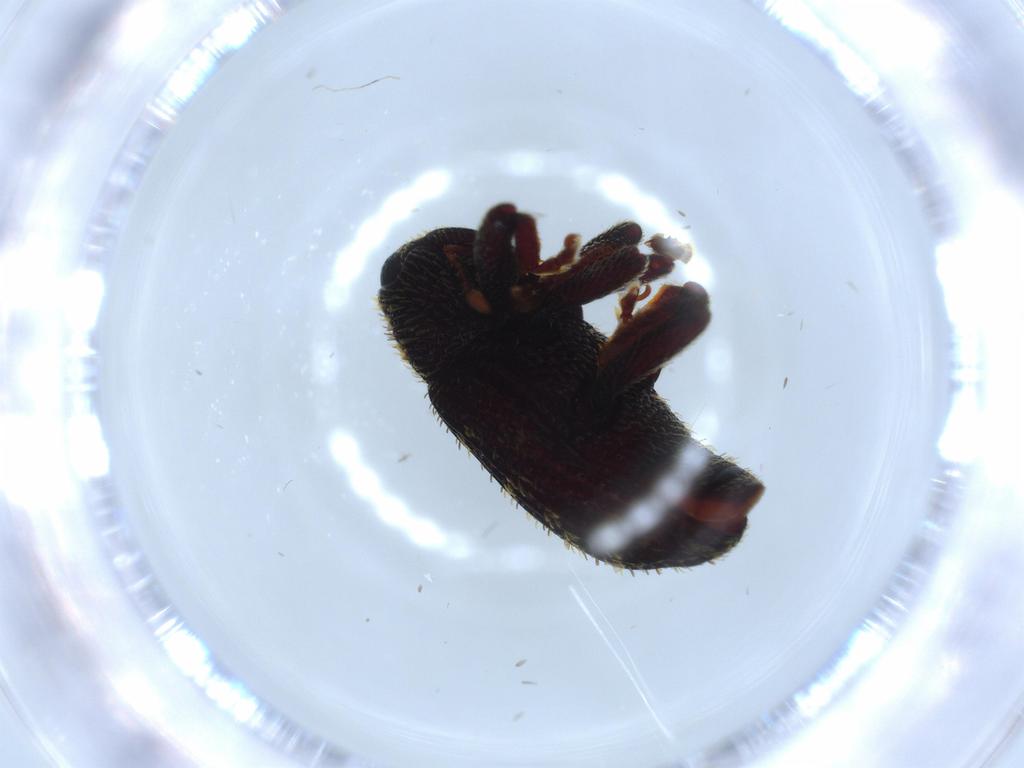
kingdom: Animalia
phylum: Arthropoda
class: Insecta
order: Coleoptera
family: Curculionidae
